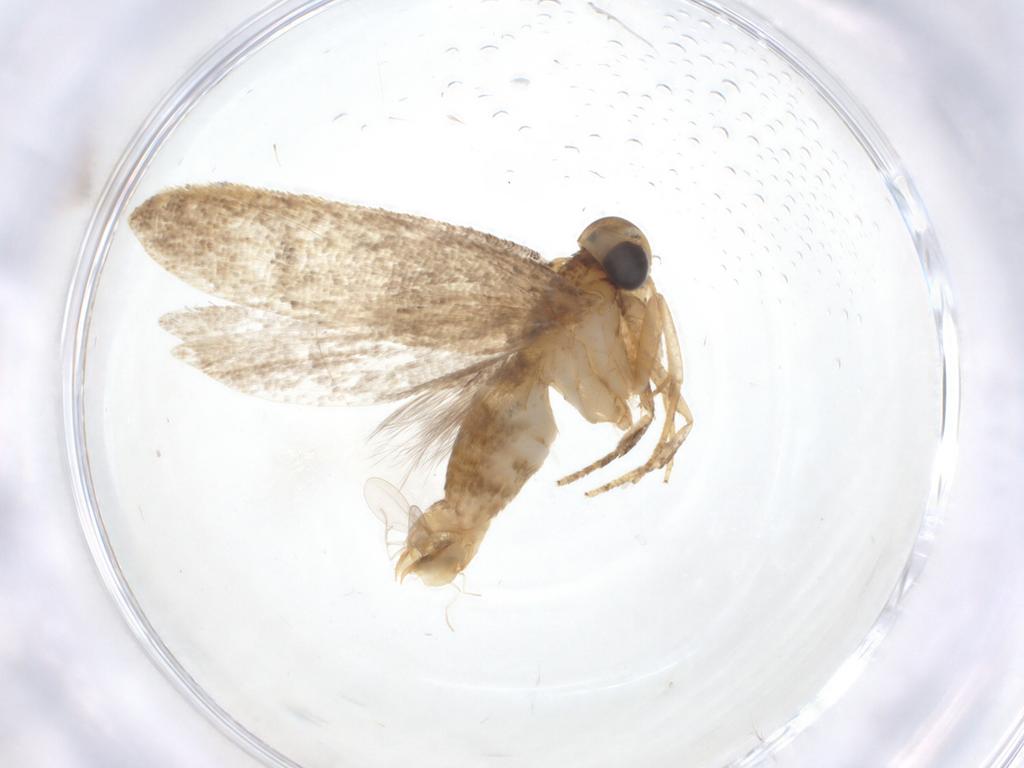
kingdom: Animalia
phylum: Arthropoda
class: Insecta
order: Lepidoptera
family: Oecophoridae
